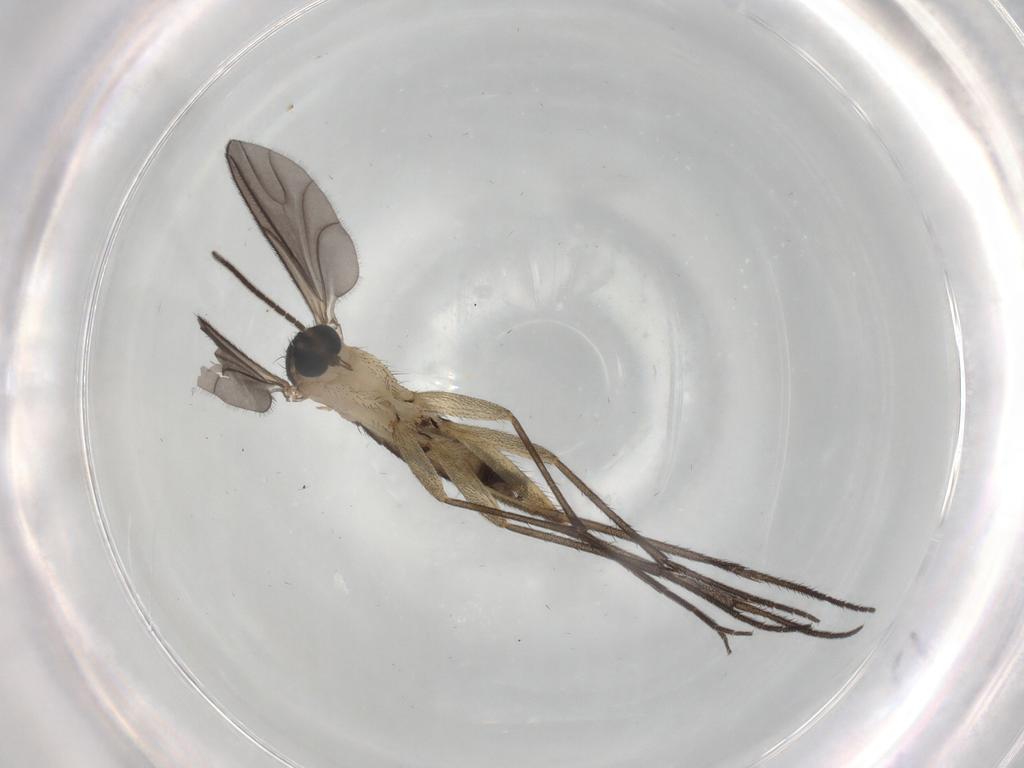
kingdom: Animalia
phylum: Arthropoda
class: Insecta
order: Diptera
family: Sciaridae
